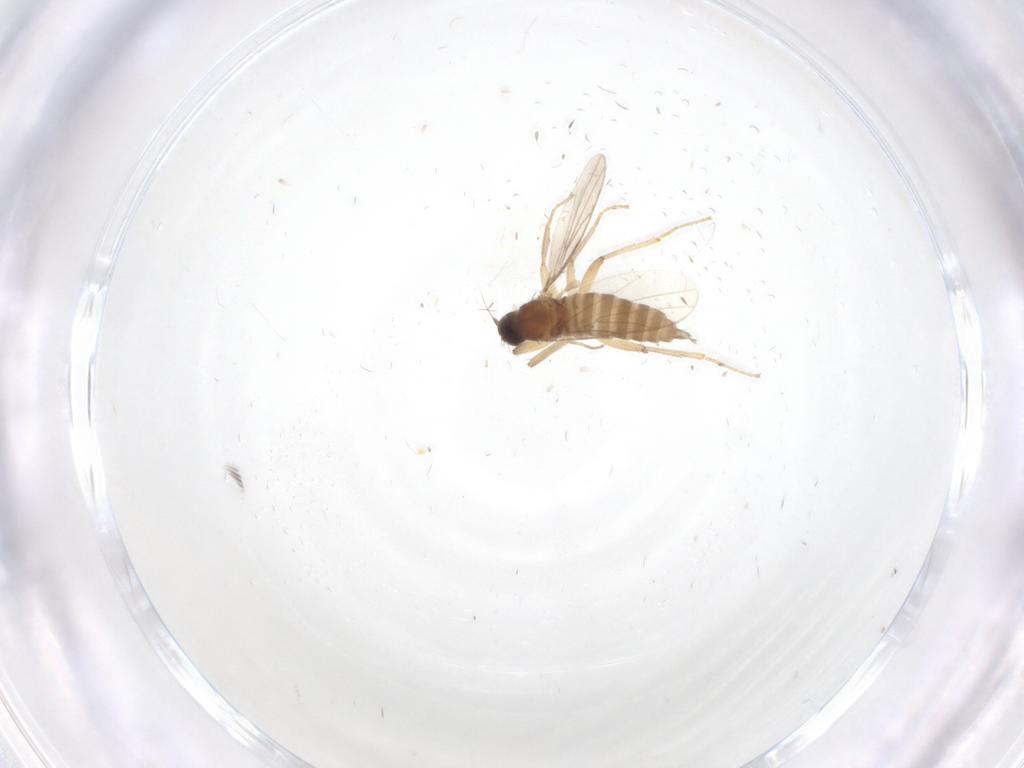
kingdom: Animalia
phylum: Arthropoda
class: Insecta
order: Diptera
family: Hybotidae
